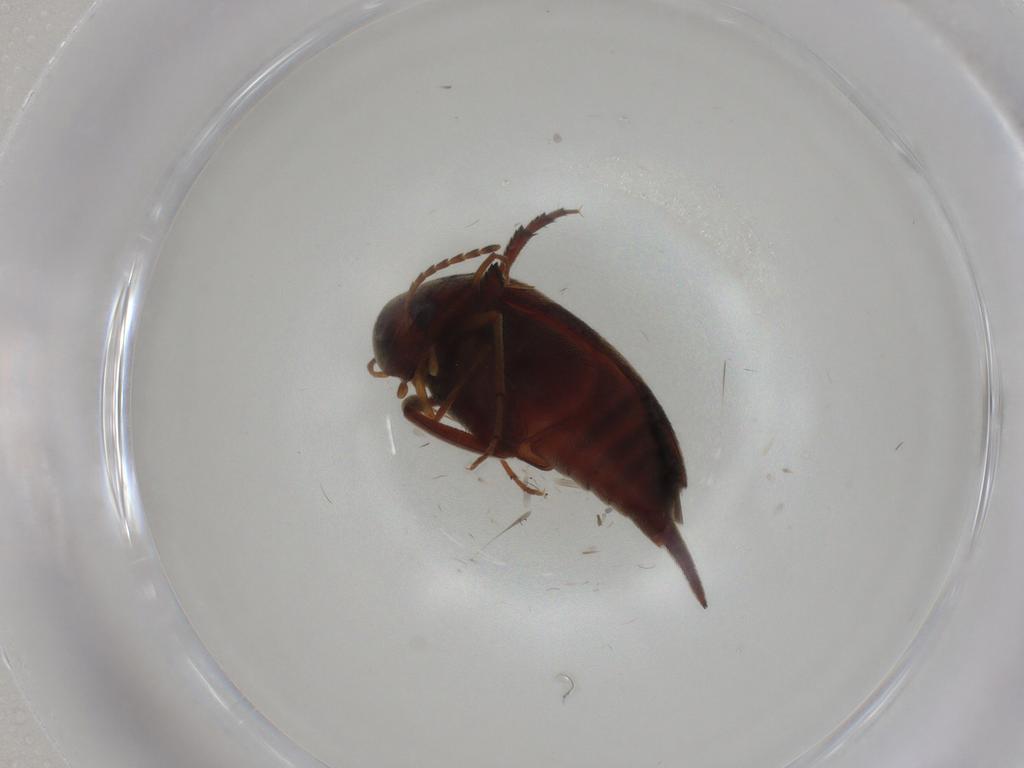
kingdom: Animalia
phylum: Arthropoda
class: Insecta
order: Coleoptera
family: Mordellidae
